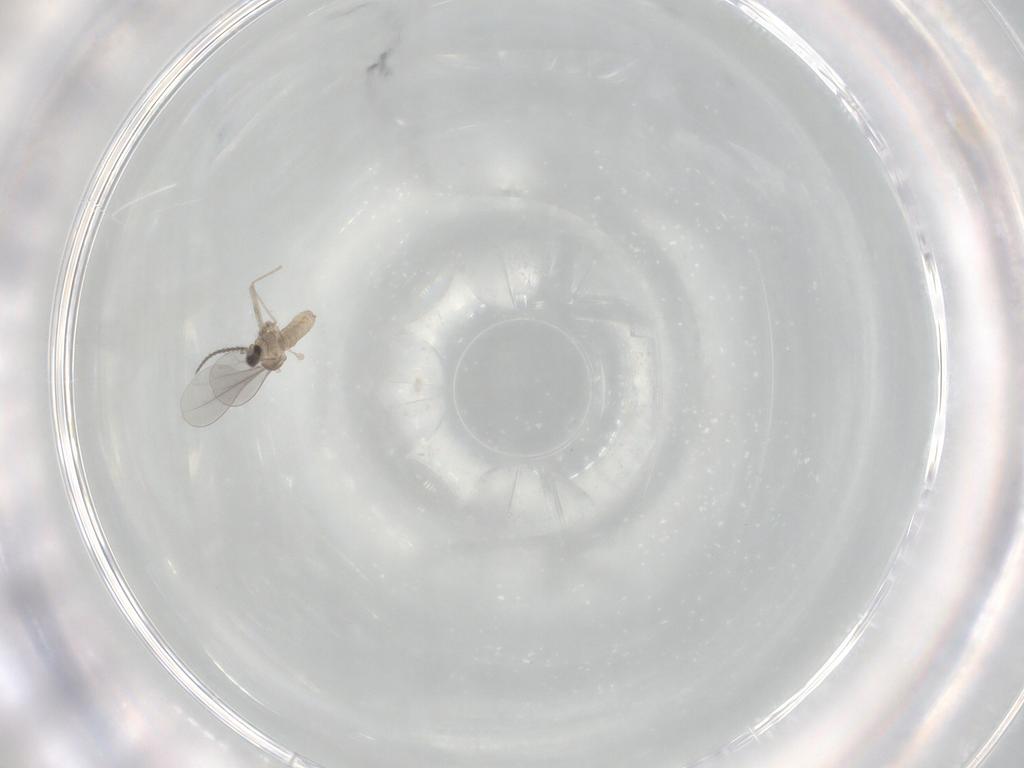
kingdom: Animalia
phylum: Arthropoda
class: Insecta
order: Diptera
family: Cecidomyiidae
